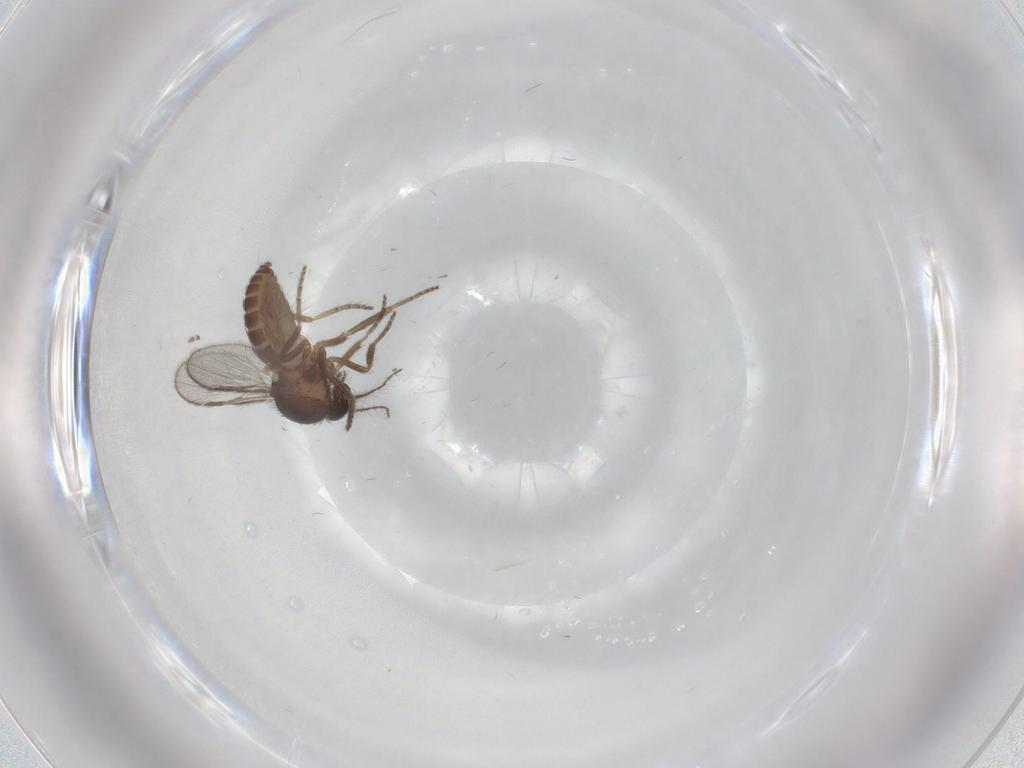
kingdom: Animalia
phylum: Arthropoda
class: Insecta
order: Diptera
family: Ceratopogonidae
